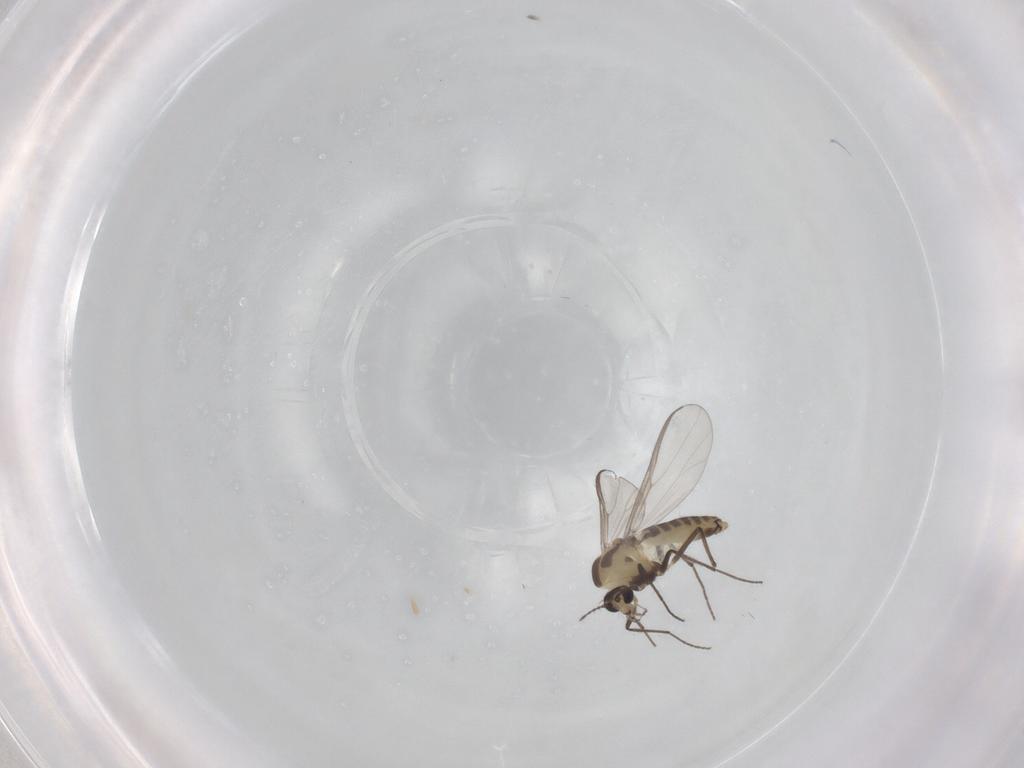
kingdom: Animalia
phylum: Arthropoda
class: Insecta
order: Diptera
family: Chironomidae
